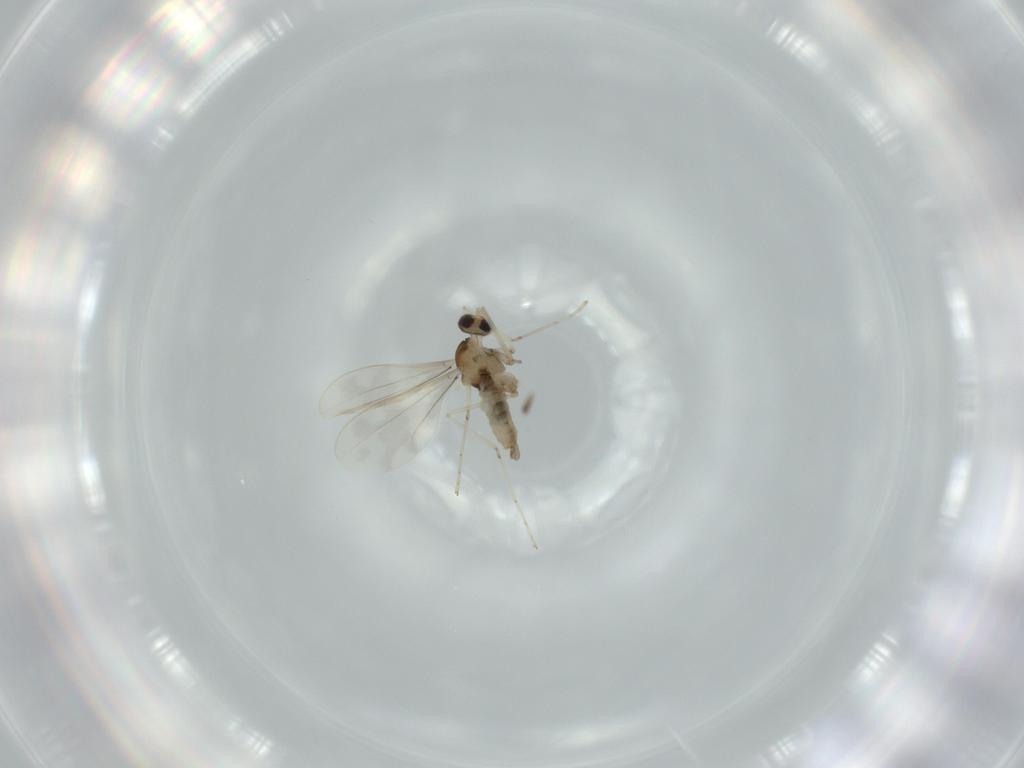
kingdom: Animalia
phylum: Arthropoda
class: Insecta
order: Diptera
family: Cecidomyiidae
